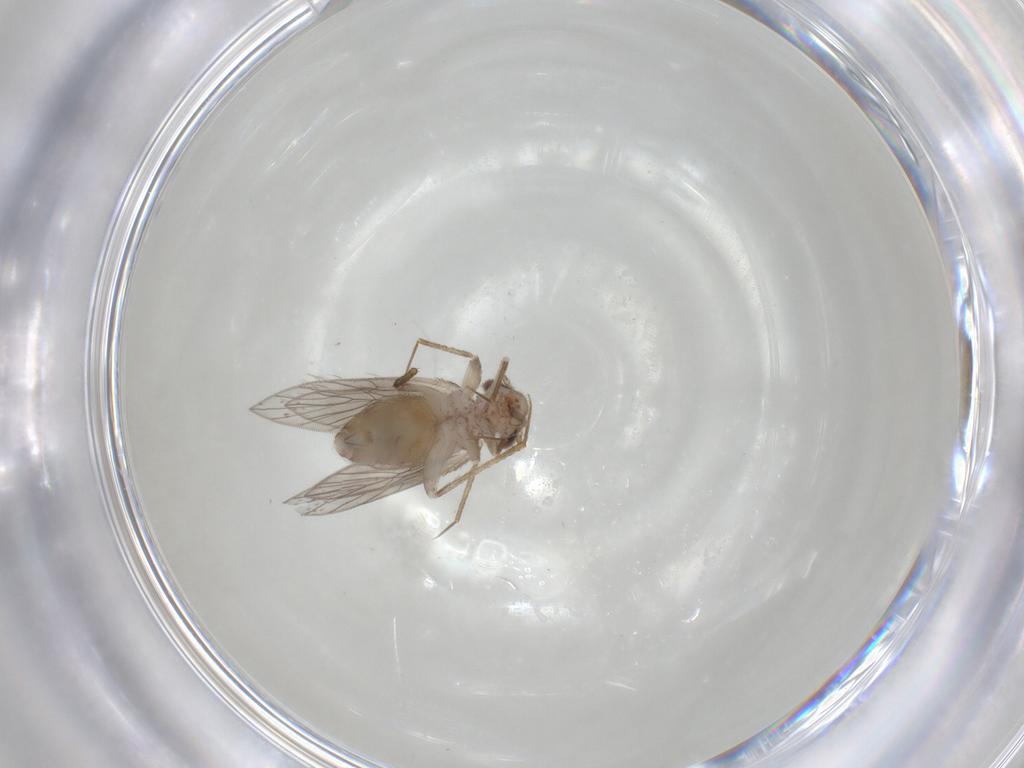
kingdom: Animalia
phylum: Arthropoda
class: Insecta
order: Psocodea
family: Lepidopsocidae
